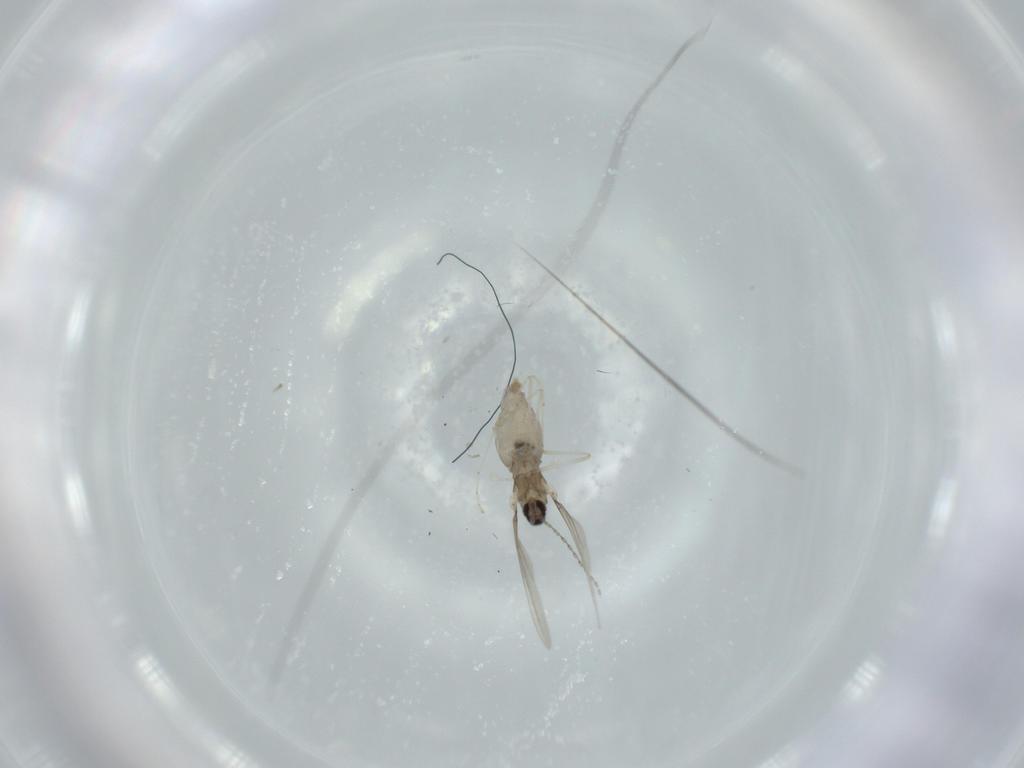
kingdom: Animalia
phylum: Arthropoda
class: Insecta
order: Diptera
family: Cecidomyiidae
